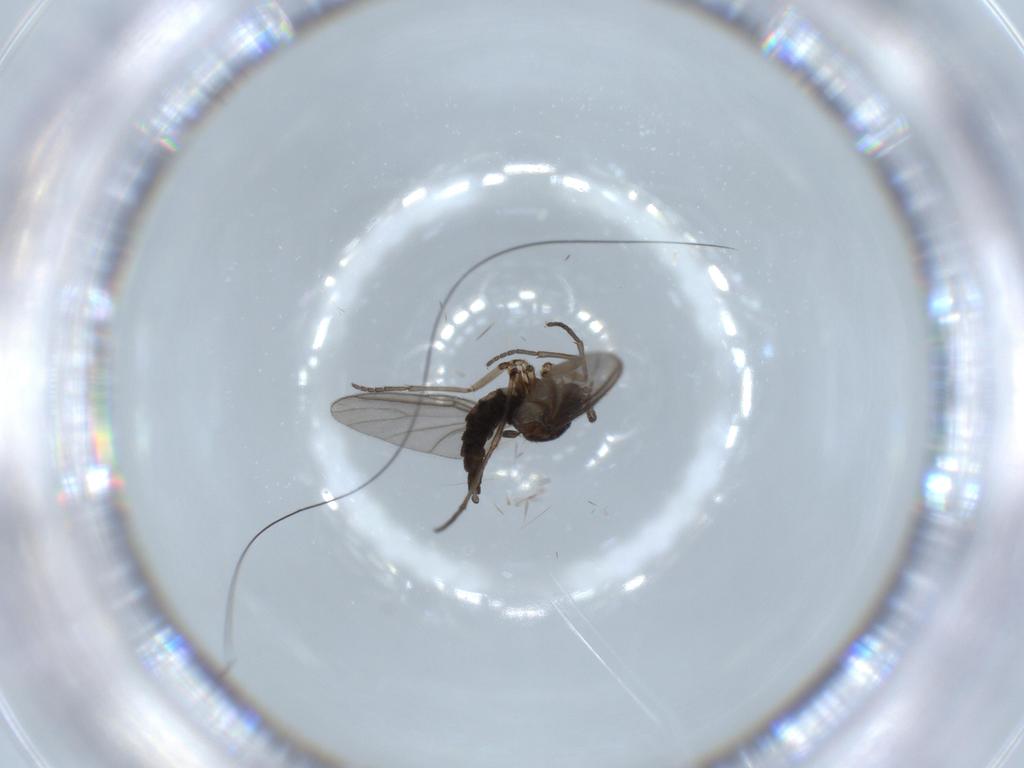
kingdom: Animalia
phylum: Arthropoda
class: Insecta
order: Diptera
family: Sciaridae
